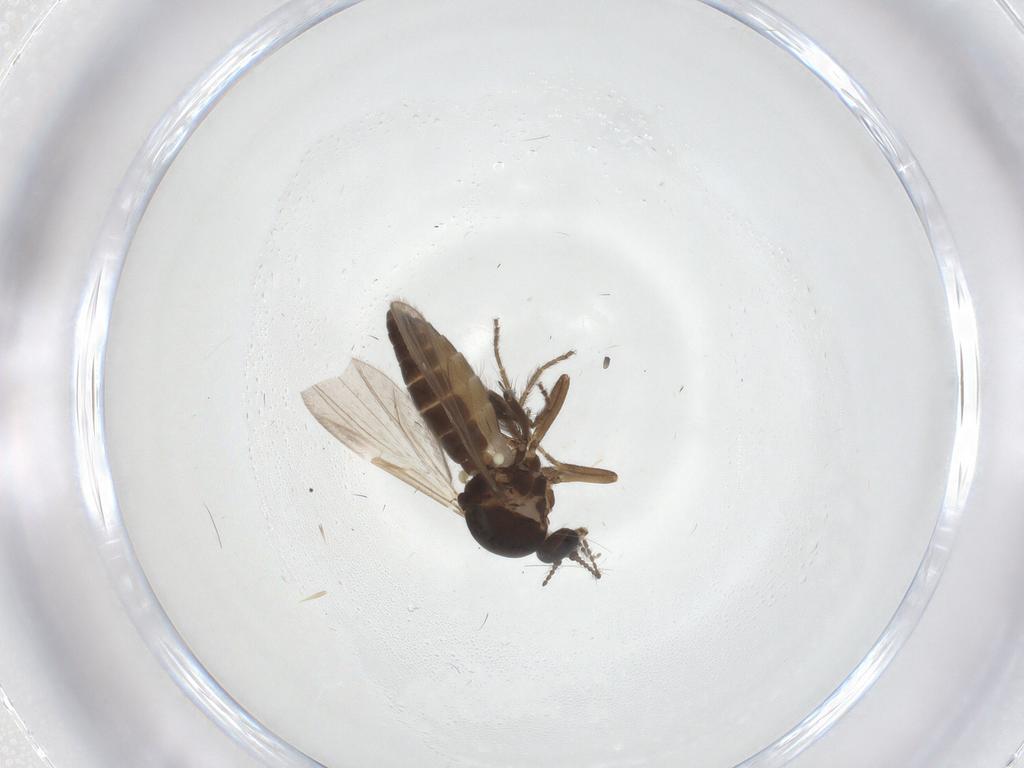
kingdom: Animalia
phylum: Arthropoda
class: Insecta
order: Diptera
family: Ceratopogonidae
